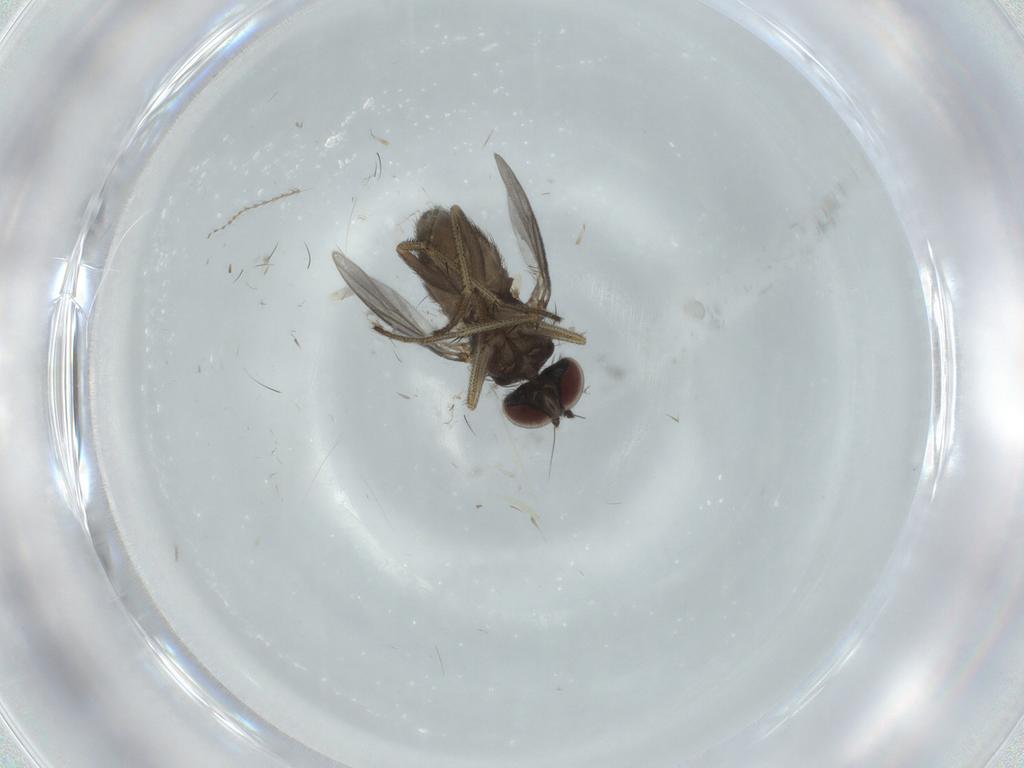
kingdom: Animalia
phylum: Arthropoda
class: Insecta
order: Diptera
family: Dolichopodidae
